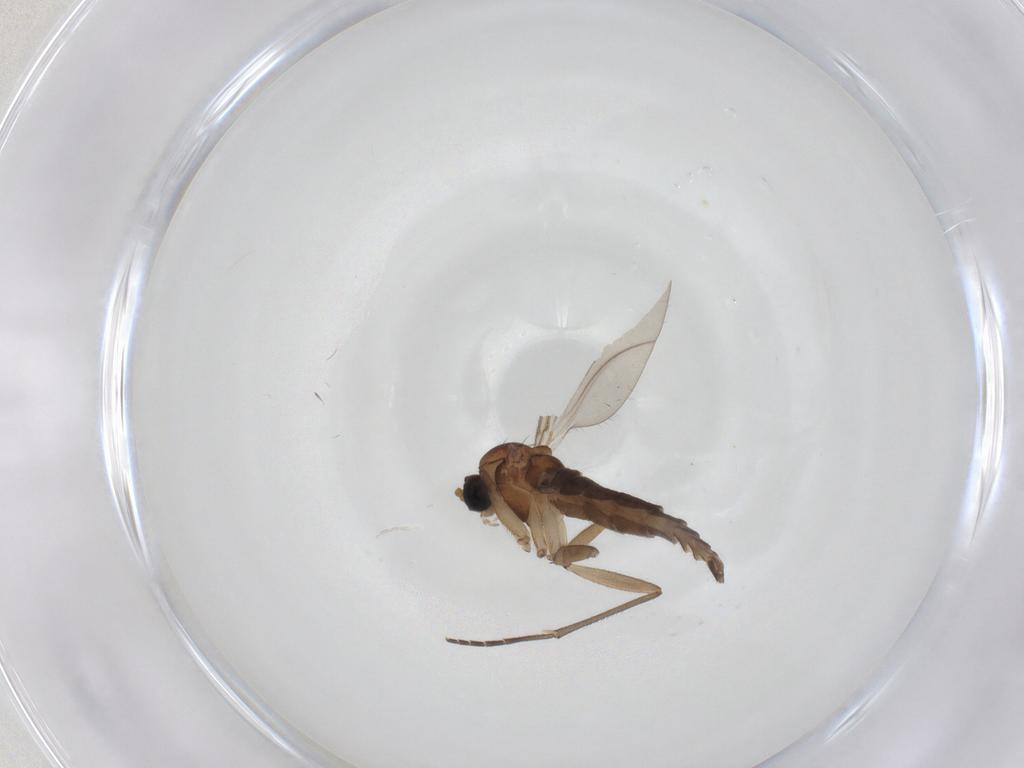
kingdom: Animalia
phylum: Arthropoda
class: Insecta
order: Diptera
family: Sciaridae
